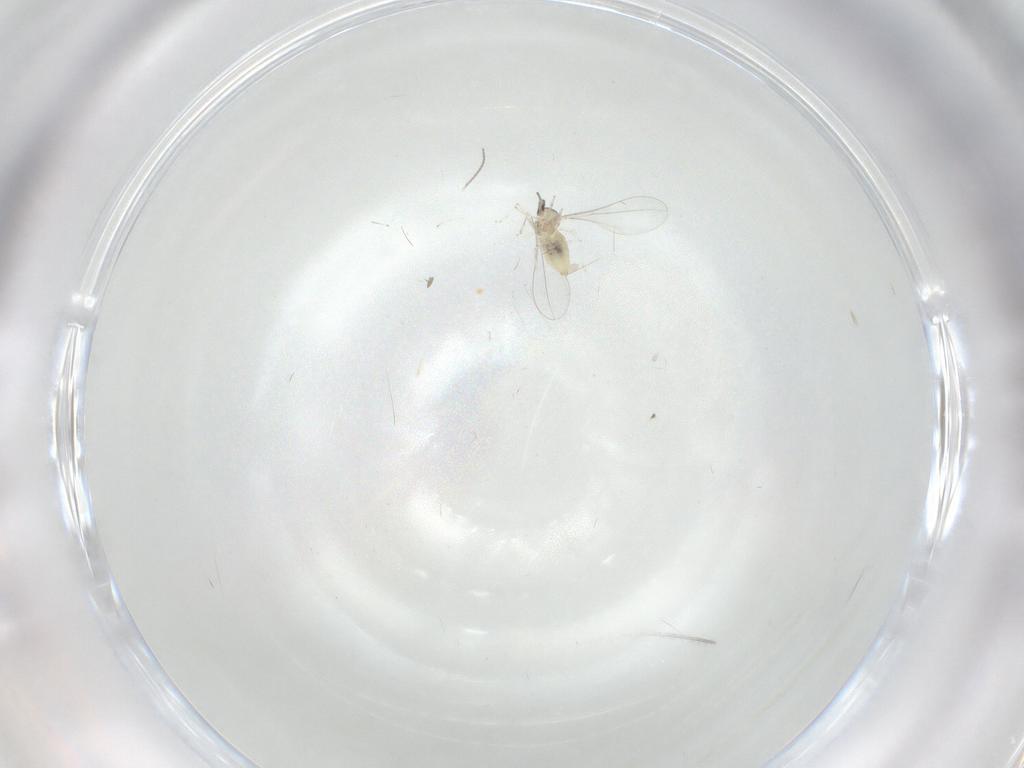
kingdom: Animalia
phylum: Arthropoda
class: Insecta
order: Diptera
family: Cecidomyiidae
